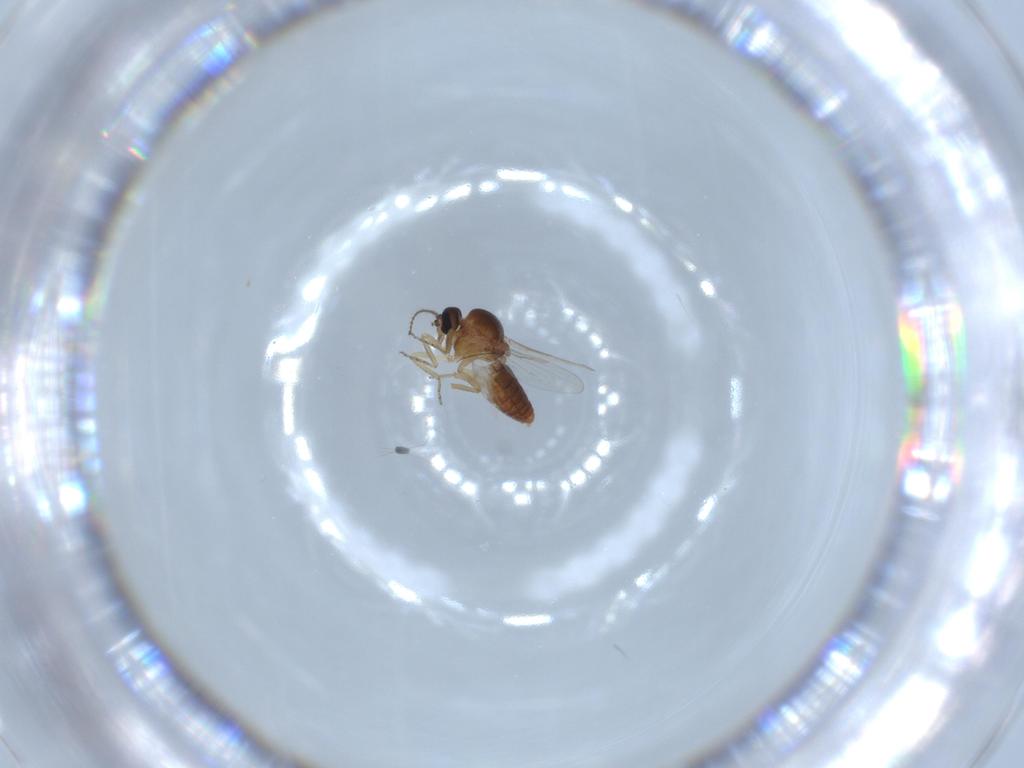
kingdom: Animalia
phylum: Arthropoda
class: Insecta
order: Diptera
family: Ceratopogonidae
